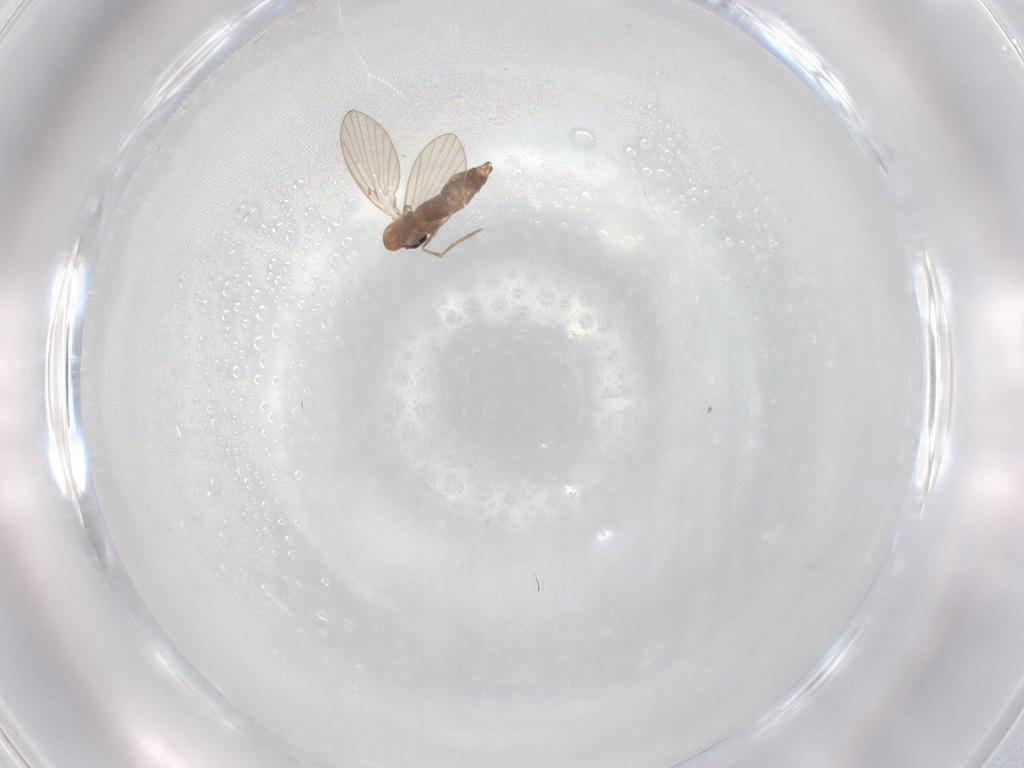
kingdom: Animalia
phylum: Arthropoda
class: Insecta
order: Diptera
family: Psychodidae
